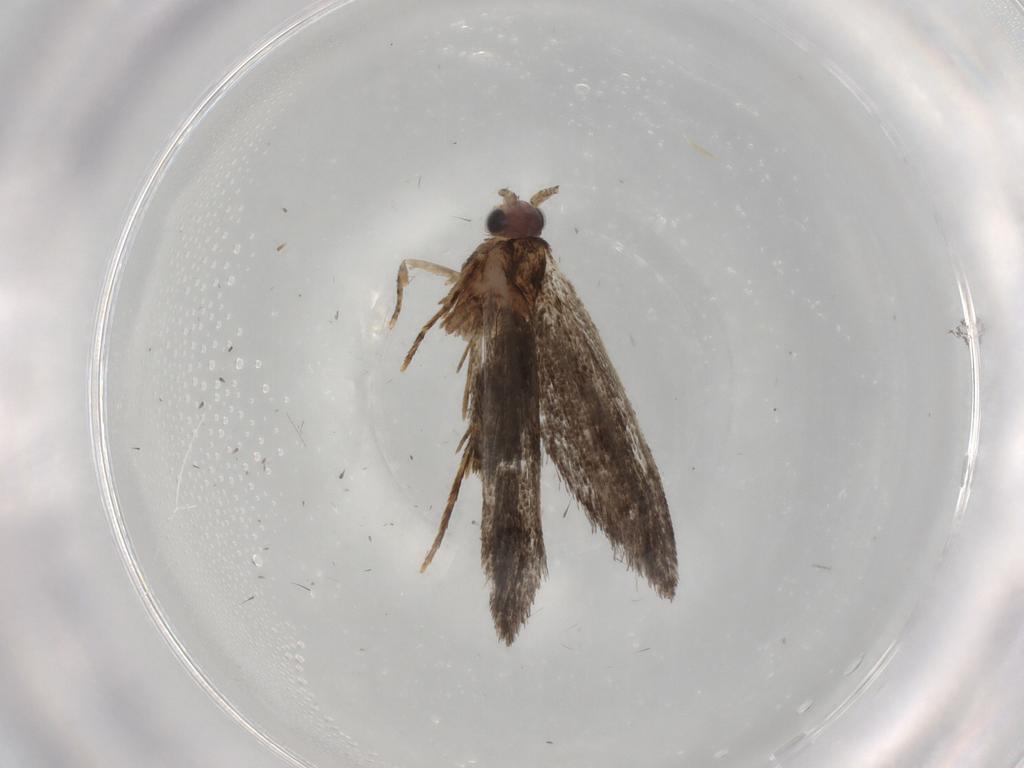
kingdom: Animalia
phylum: Arthropoda
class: Insecta
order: Lepidoptera
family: Nepticulidae
